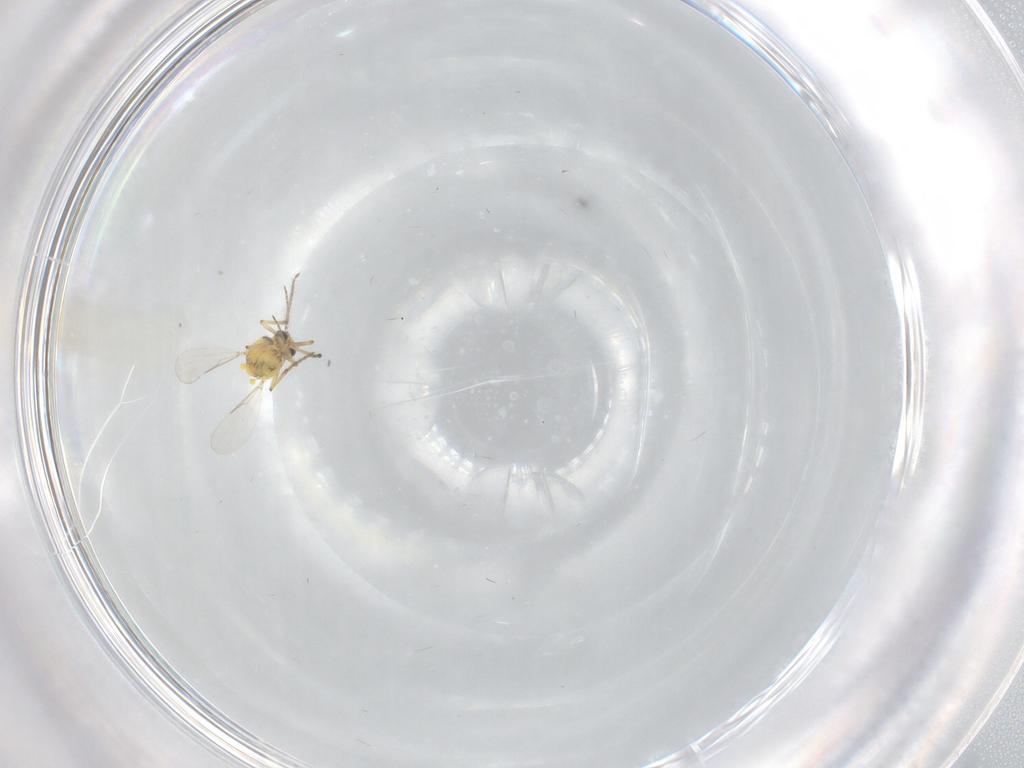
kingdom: Animalia
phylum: Arthropoda
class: Insecta
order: Diptera
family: Ceratopogonidae
